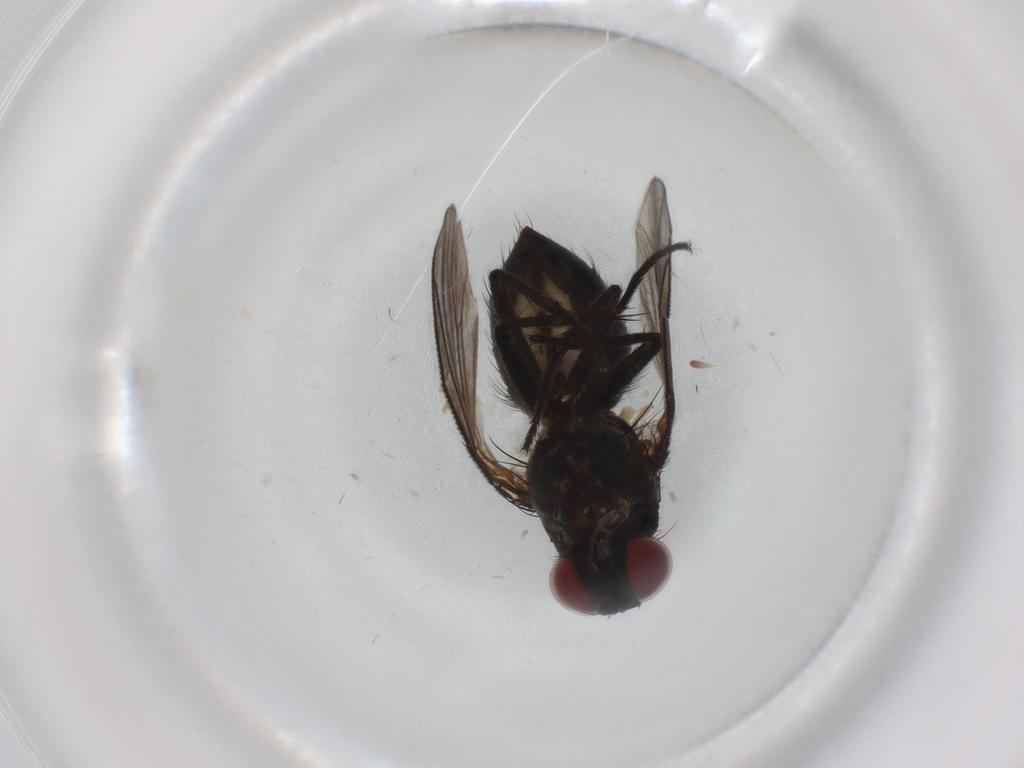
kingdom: Animalia
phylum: Arthropoda
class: Insecta
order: Diptera
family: Muscidae
